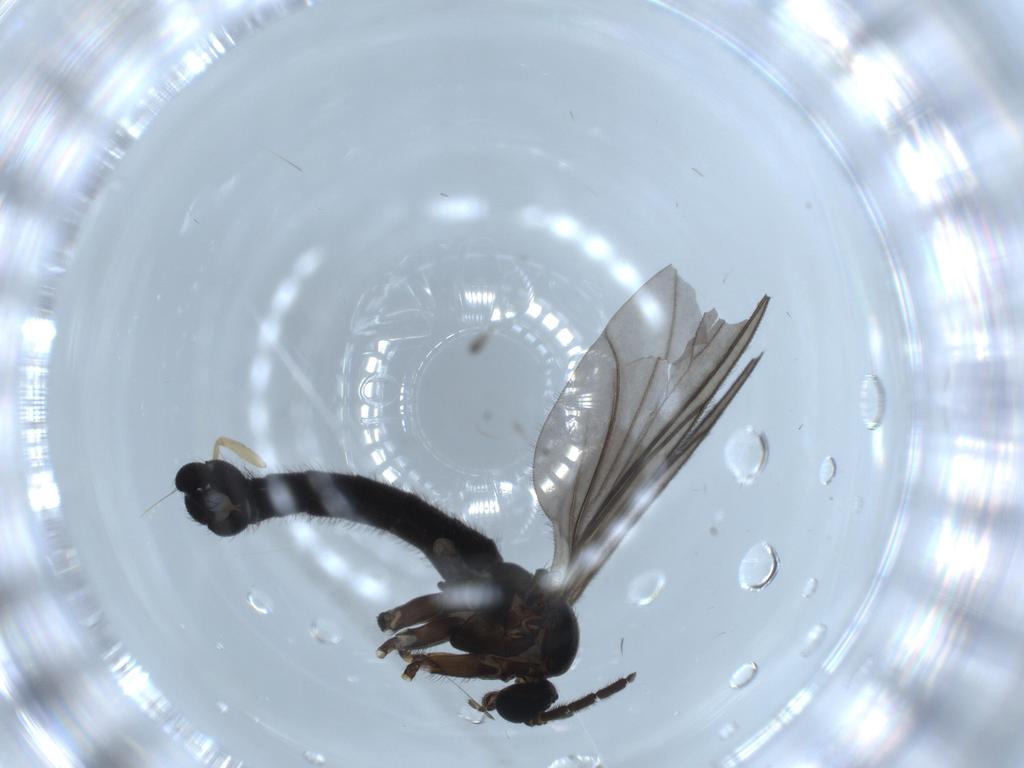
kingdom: Animalia
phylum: Arthropoda
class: Insecta
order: Diptera
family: Sciaridae
